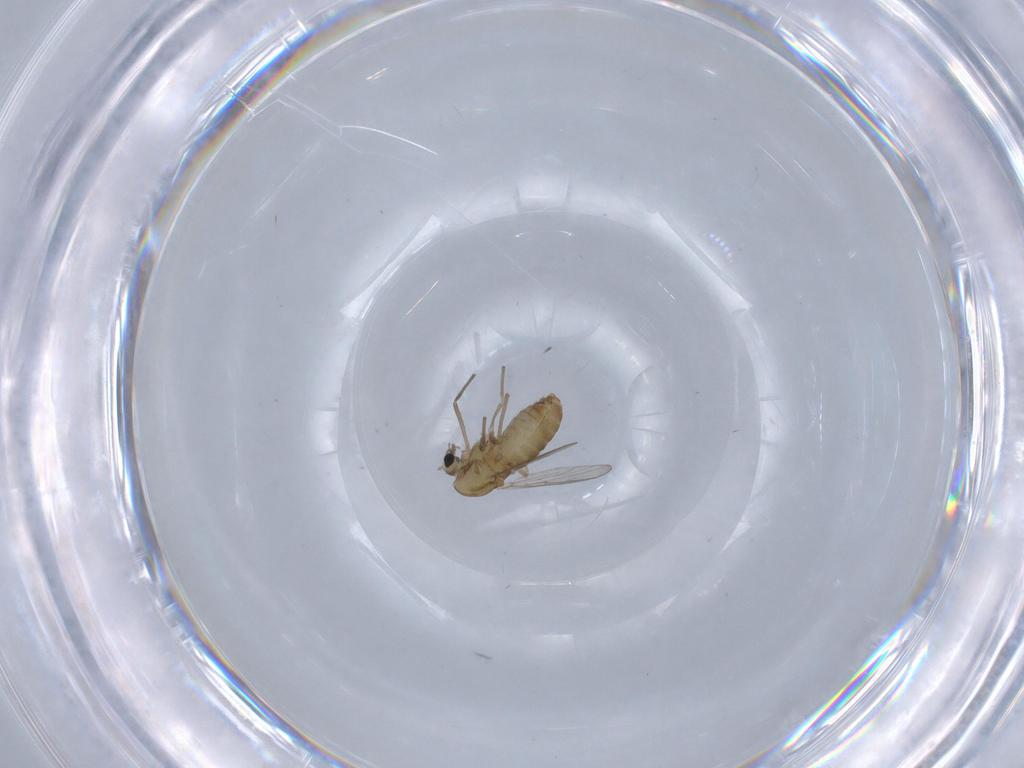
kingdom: Animalia
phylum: Arthropoda
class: Insecta
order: Diptera
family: Chironomidae
